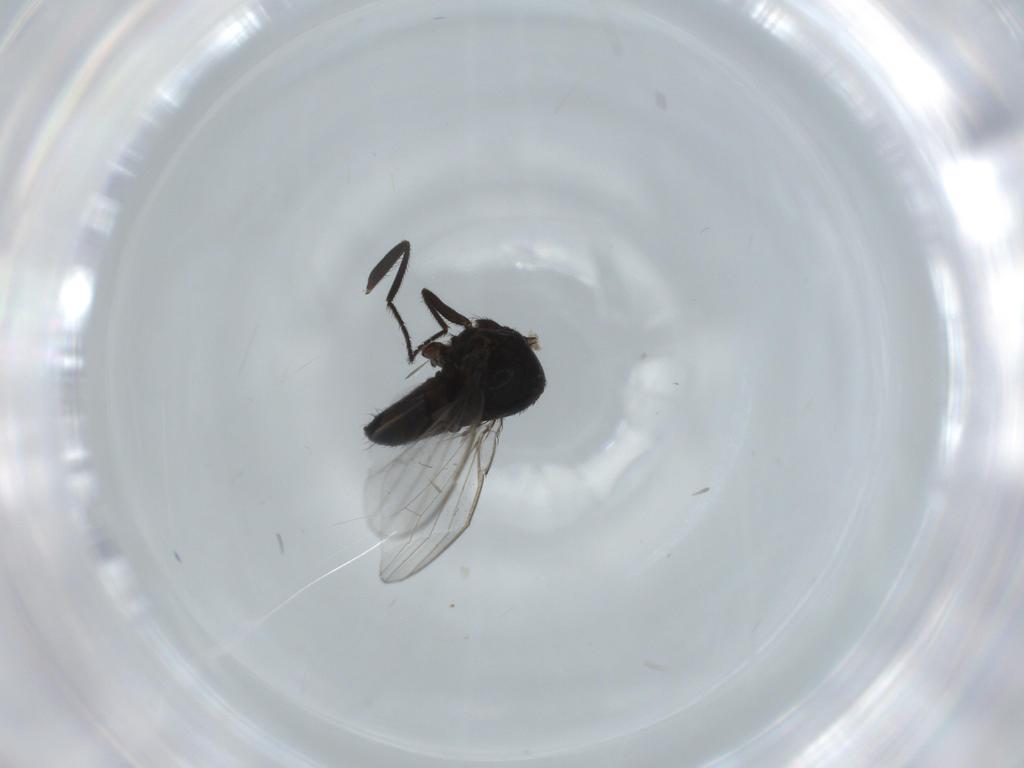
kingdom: Animalia
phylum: Arthropoda
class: Insecta
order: Diptera
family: Milichiidae
